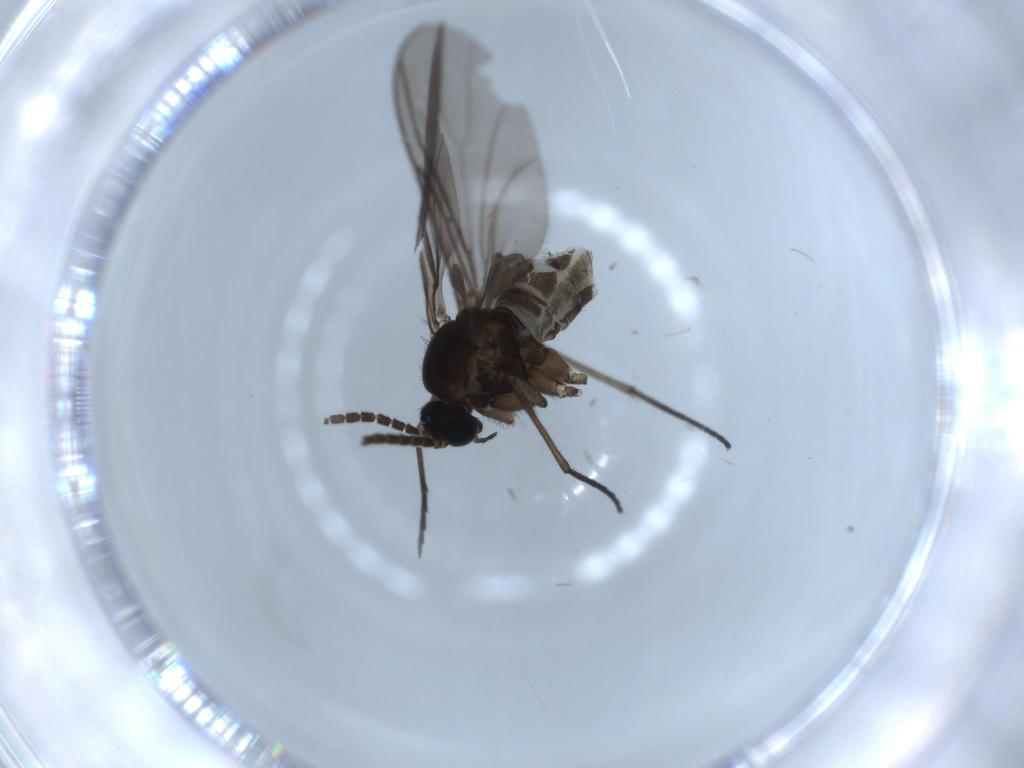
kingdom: Animalia
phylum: Arthropoda
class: Insecta
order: Diptera
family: Sciaridae
